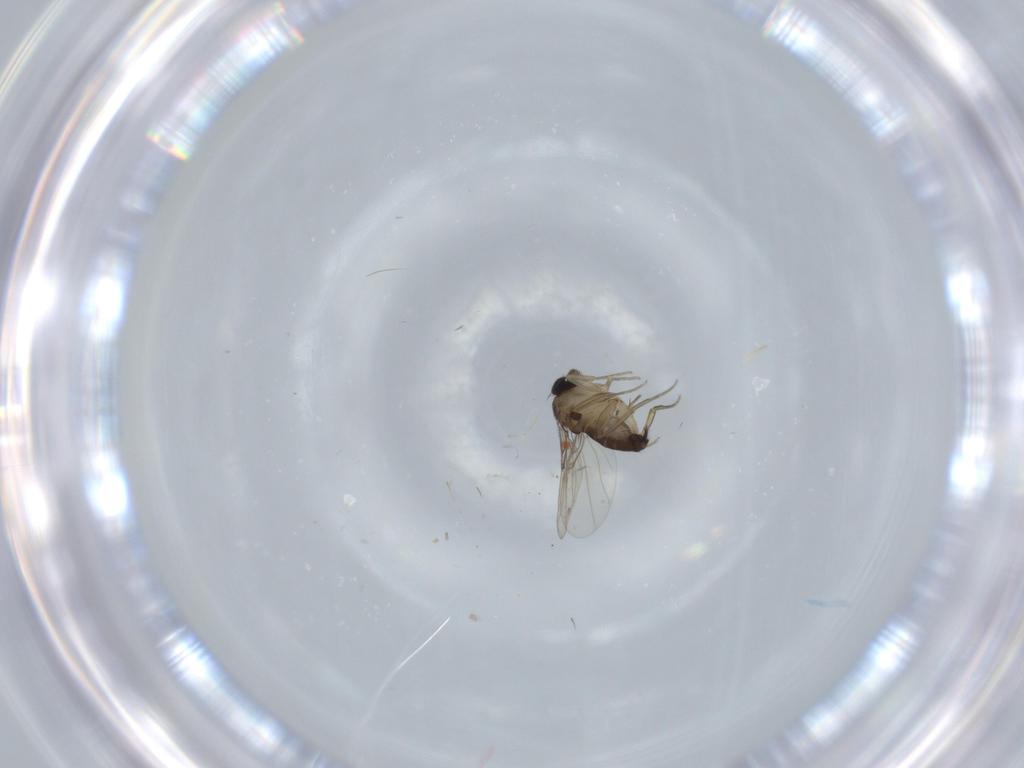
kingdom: Animalia
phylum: Arthropoda
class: Insecta
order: Diptera
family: Phoridae
